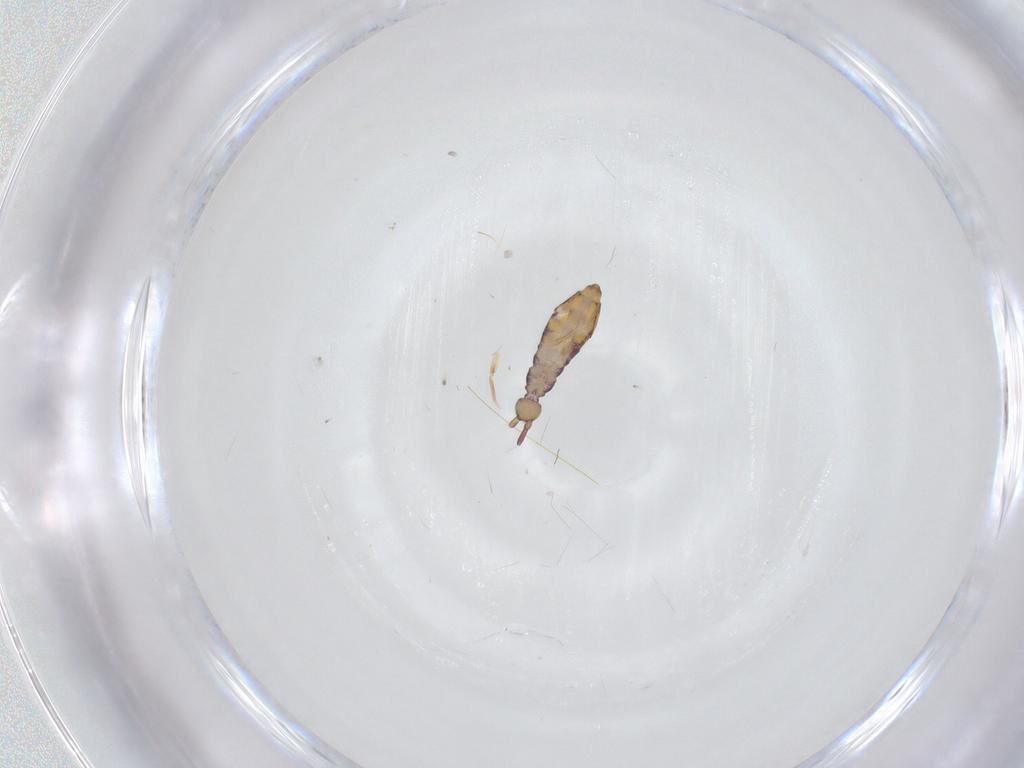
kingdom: Animalia
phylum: Arthropoda
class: Collembola
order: Entomobryomorpha
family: Entomobryidae
